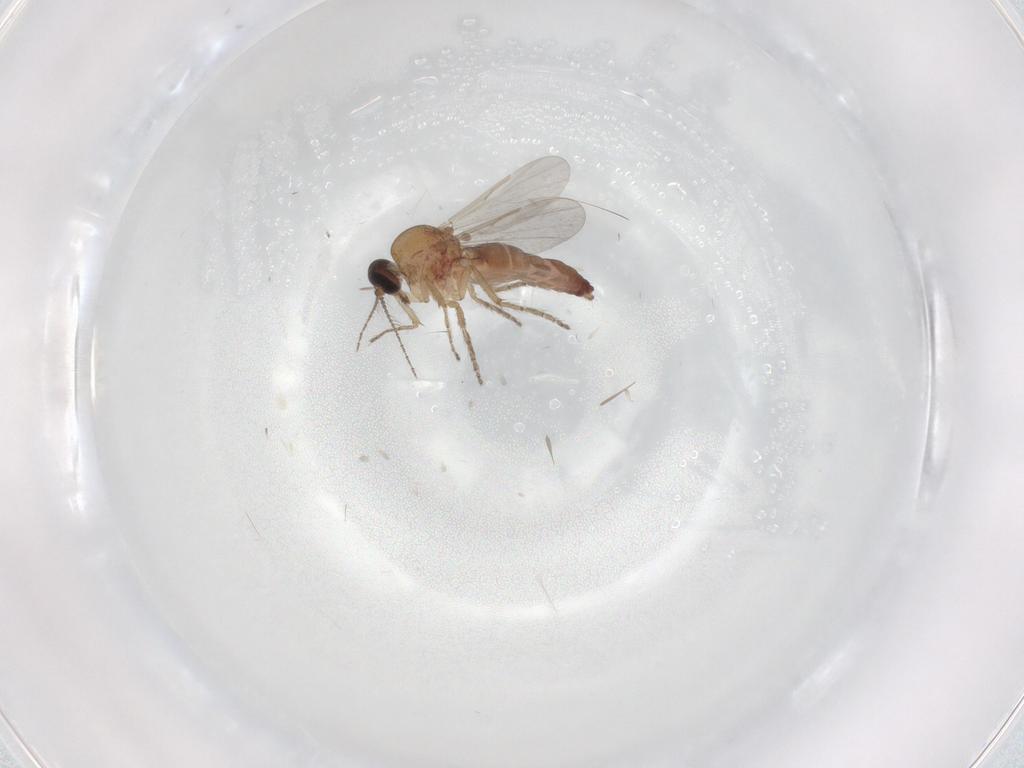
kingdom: Animalia
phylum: Arthropoda
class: Insecta
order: Diptera
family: Ceratopogonidae
